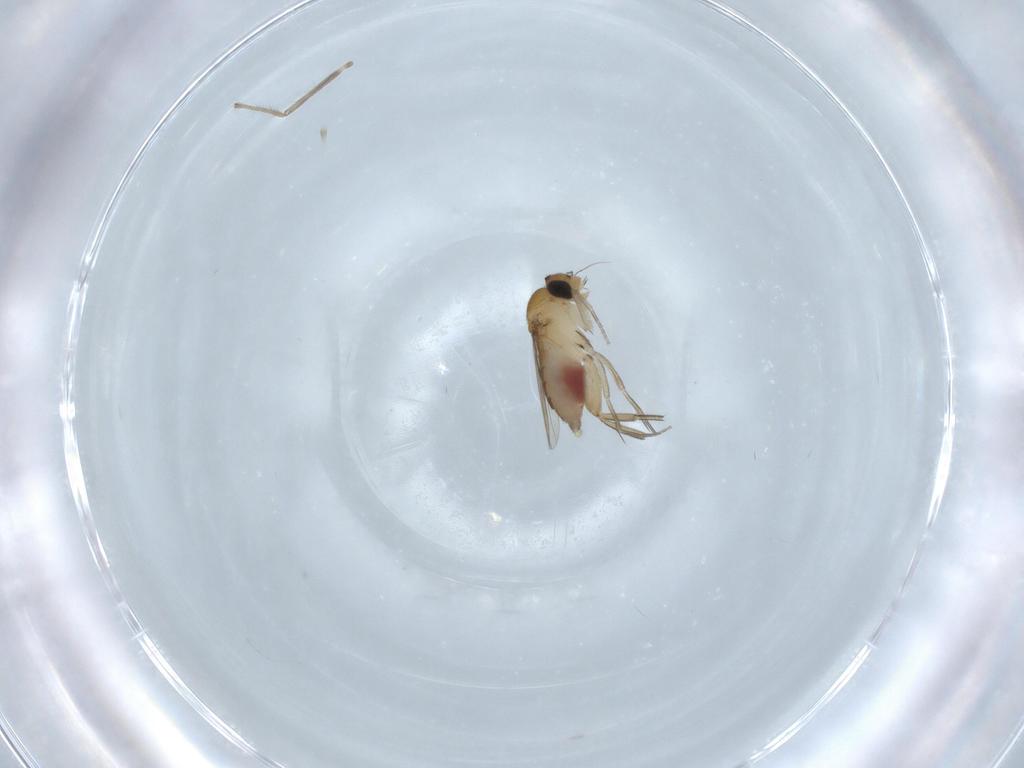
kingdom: Animalia
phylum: Arthropoda
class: Insecta
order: Diptera
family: Phoridae
